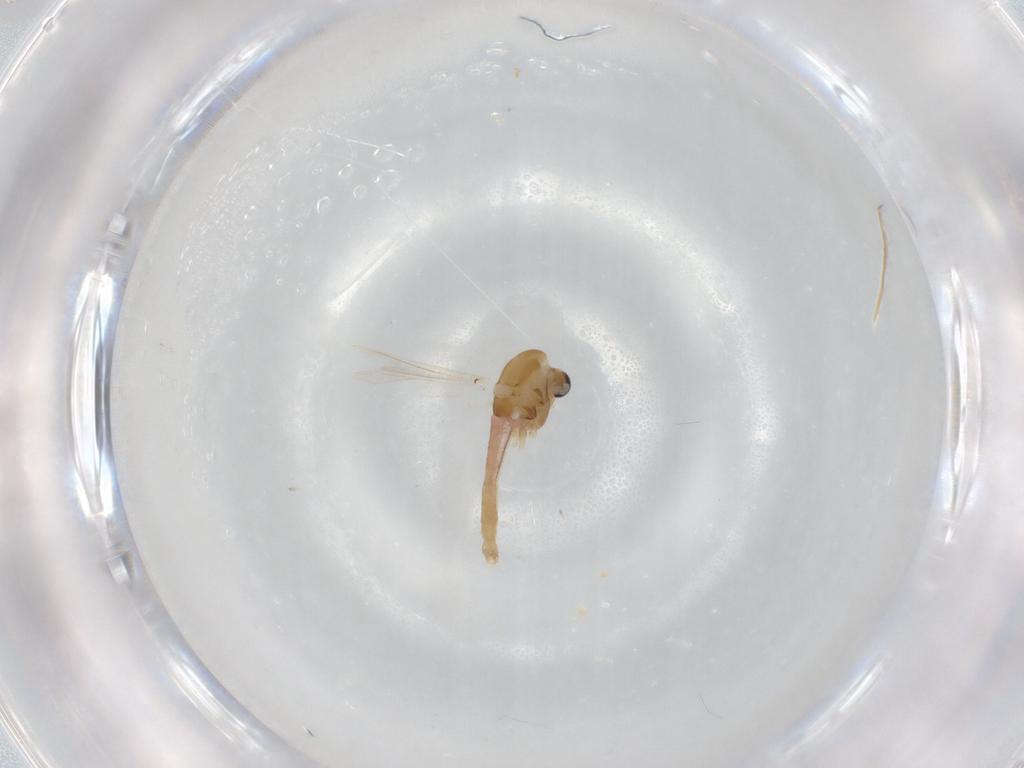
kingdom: Animalia
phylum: Arthropoda
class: Insecta
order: Diptera
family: Chironomidae
